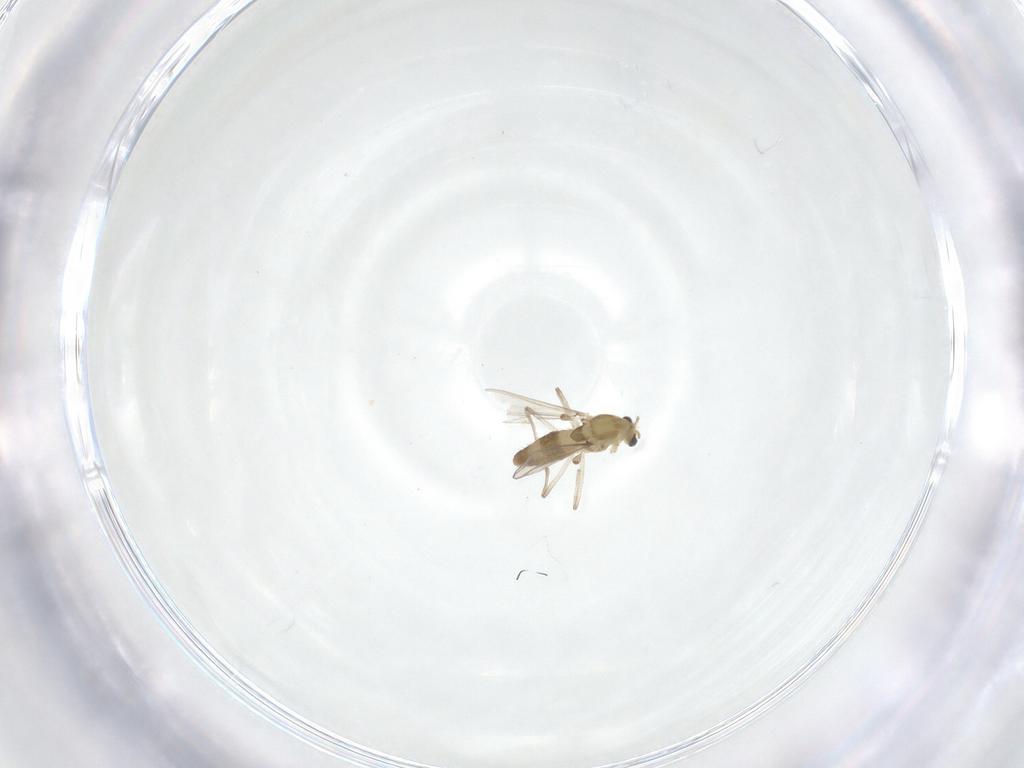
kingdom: Animalia
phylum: Arthropoda
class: Insecta
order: Diptera
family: Chironomidae
